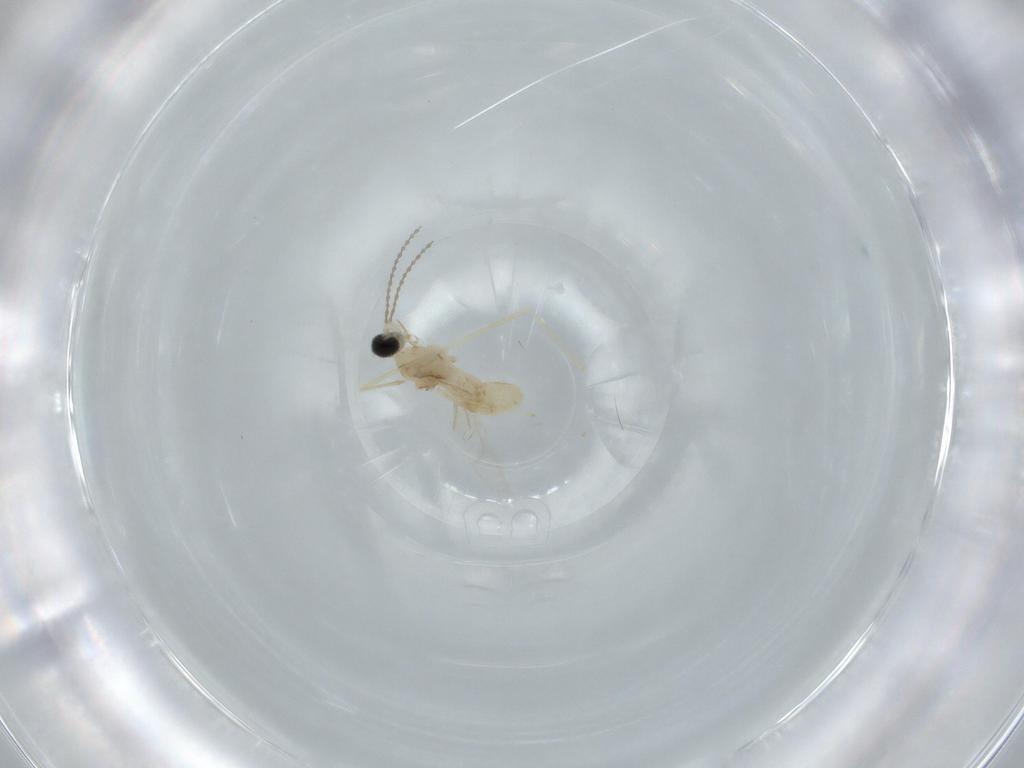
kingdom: Animalia
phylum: Arthropoda
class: Insecta
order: Diptera
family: Cecidomyiidae
